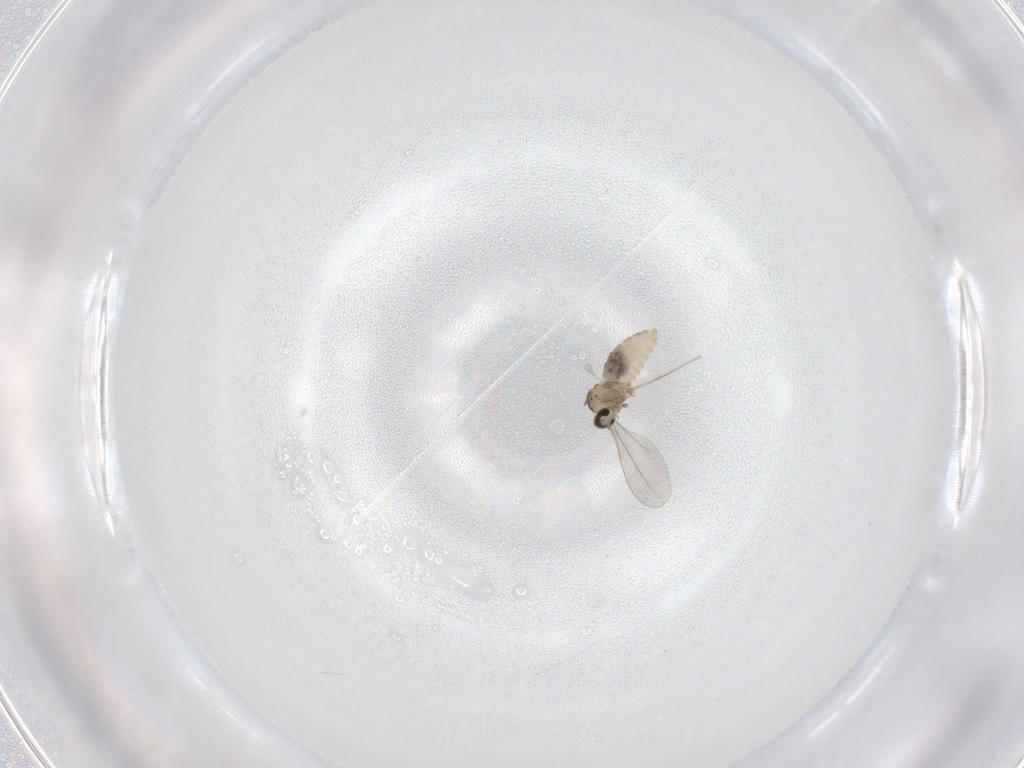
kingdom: Animalia
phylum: Arthropoda
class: Insecta
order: Diptera
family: Cecidomyiidae
